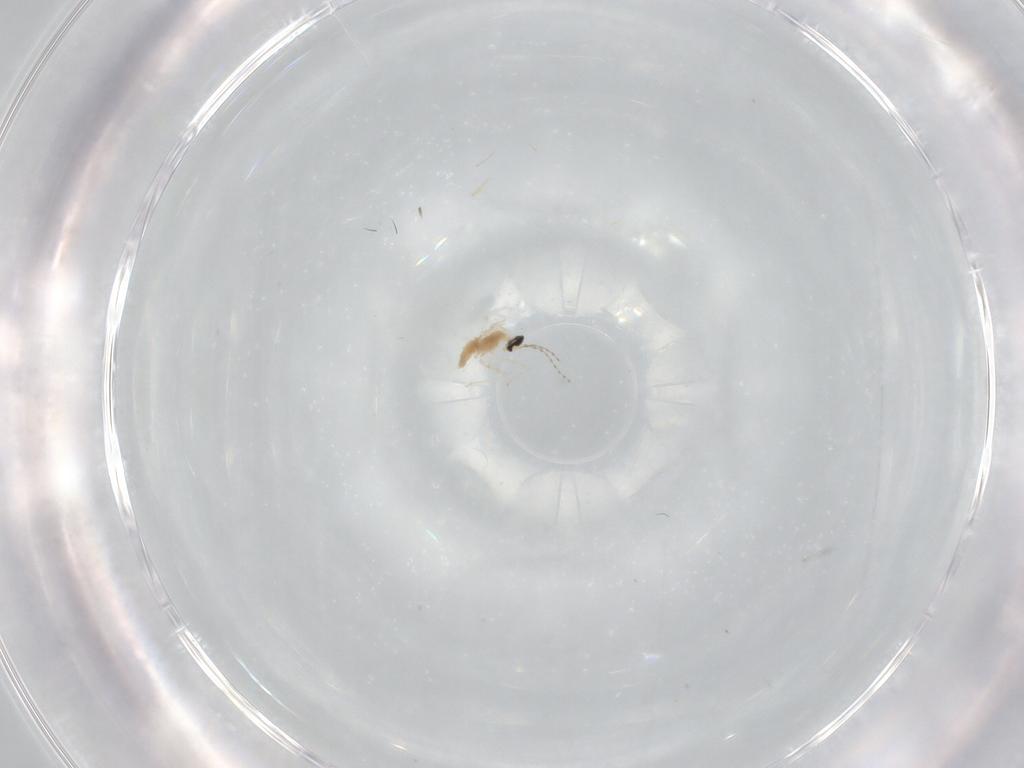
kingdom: Animalia
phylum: Arthropoda
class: Insecta
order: Diptera
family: Cecidomyiidae
